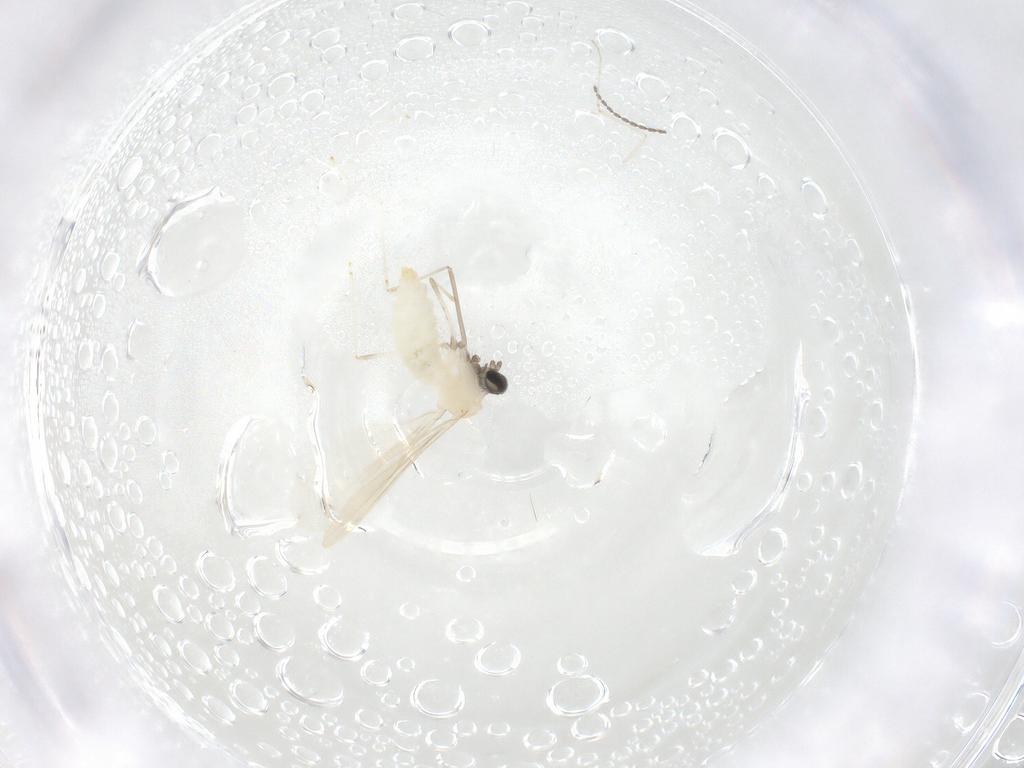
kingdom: Animalia
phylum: Arthropoda
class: Insecta
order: Diptera
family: Cecidomyiidae
